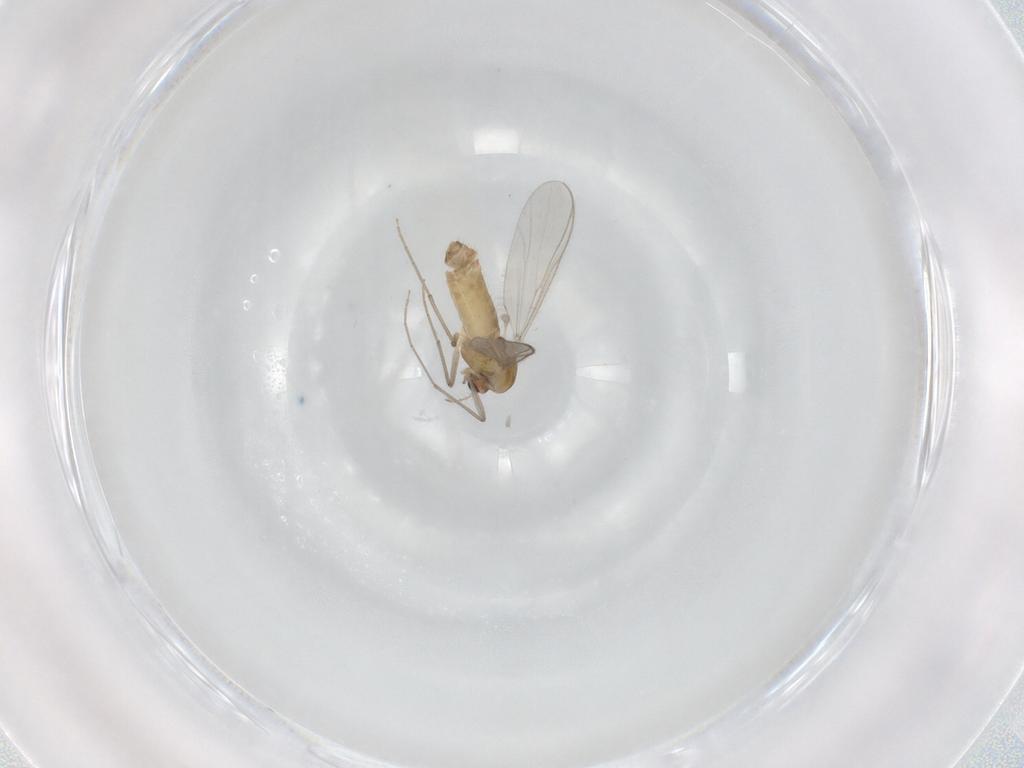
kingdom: Animalia
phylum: Arthropoda
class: Insecta
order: Diptera
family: Chironomidae
